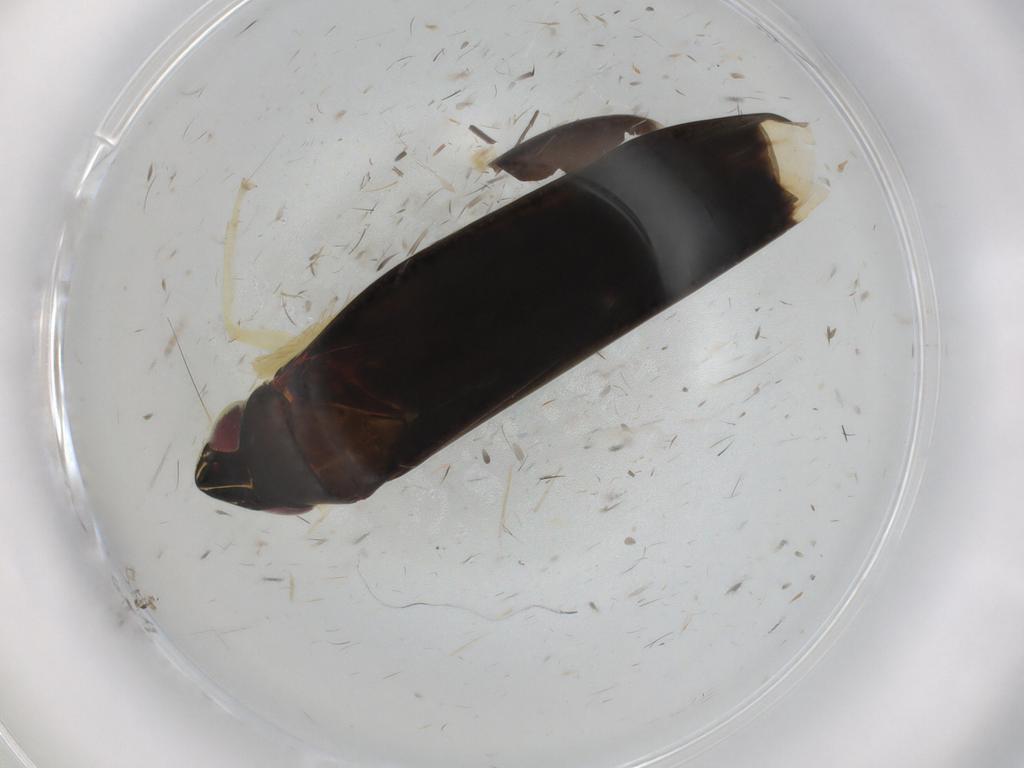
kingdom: Animalia
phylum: Arthropoda
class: Insecta
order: Hemiptera
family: Cicadellidae
